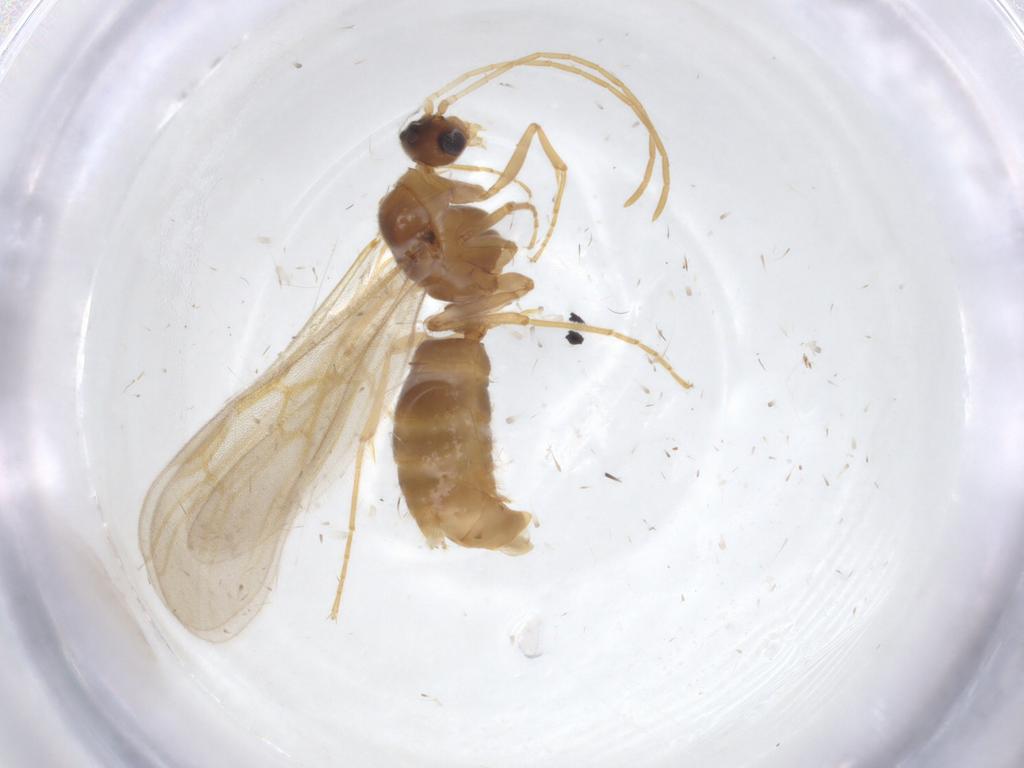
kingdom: Animalia
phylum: Arthropoda
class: Insecta
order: Hymenoptera
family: Formicidae
